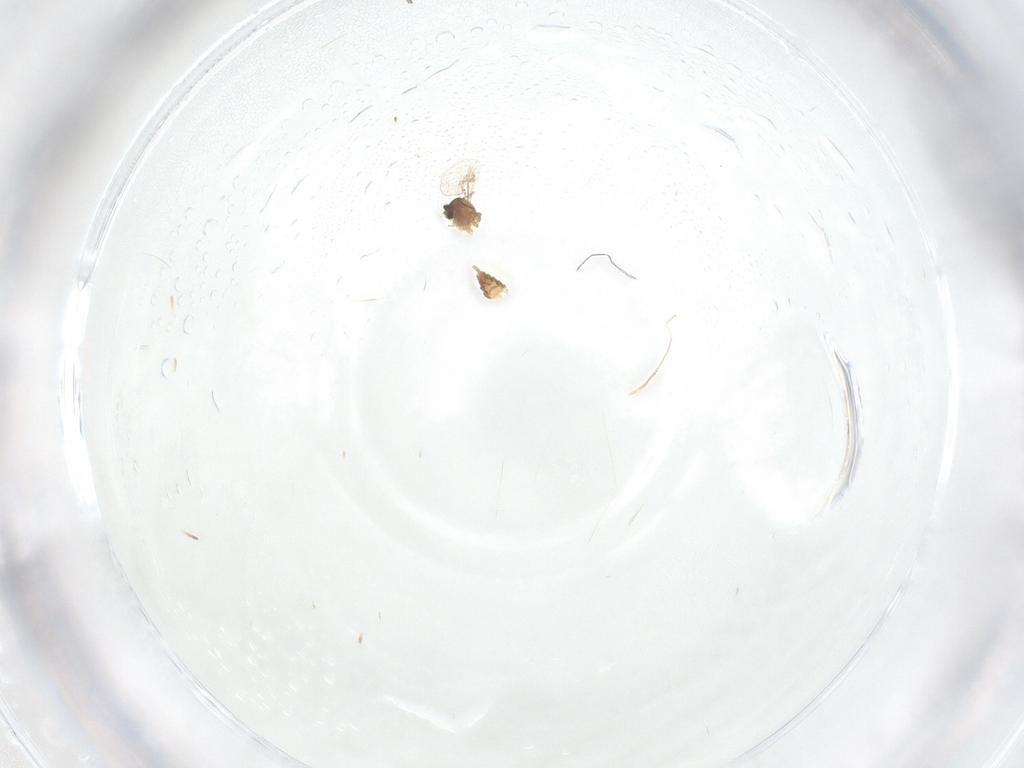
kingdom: Animalia
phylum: Arthropoda
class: Insecta
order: Diptera
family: Cecidomyiidae
